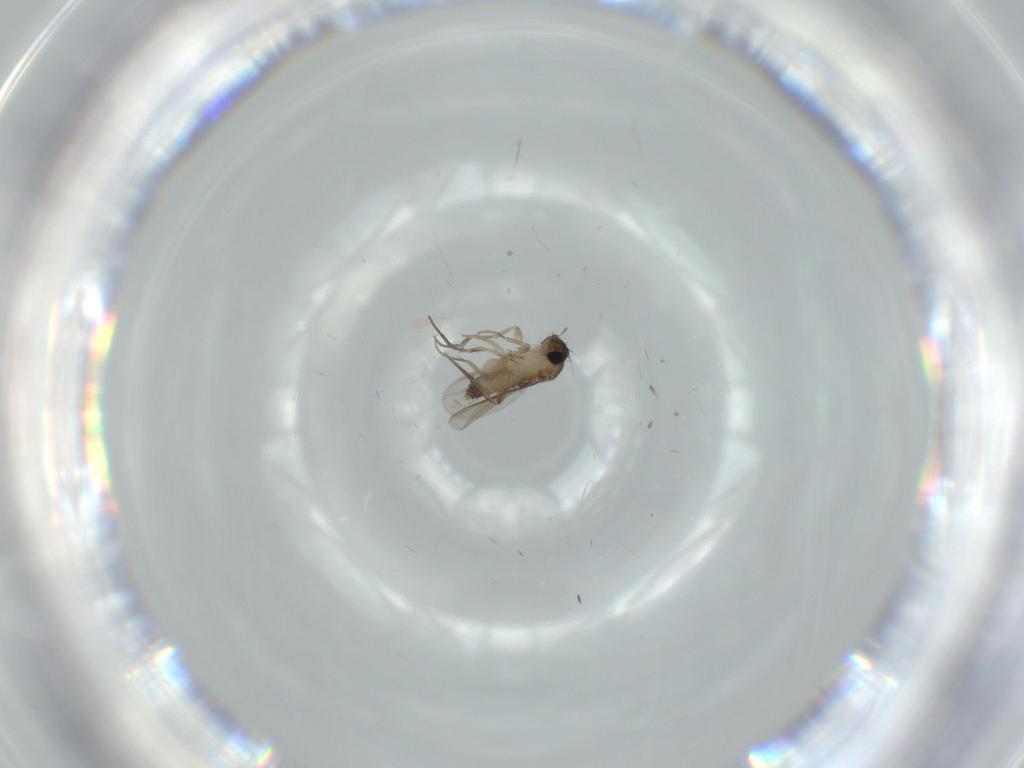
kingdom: Animalia
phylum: Arthropoda
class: Insecta
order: Diptera
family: Phoridae
